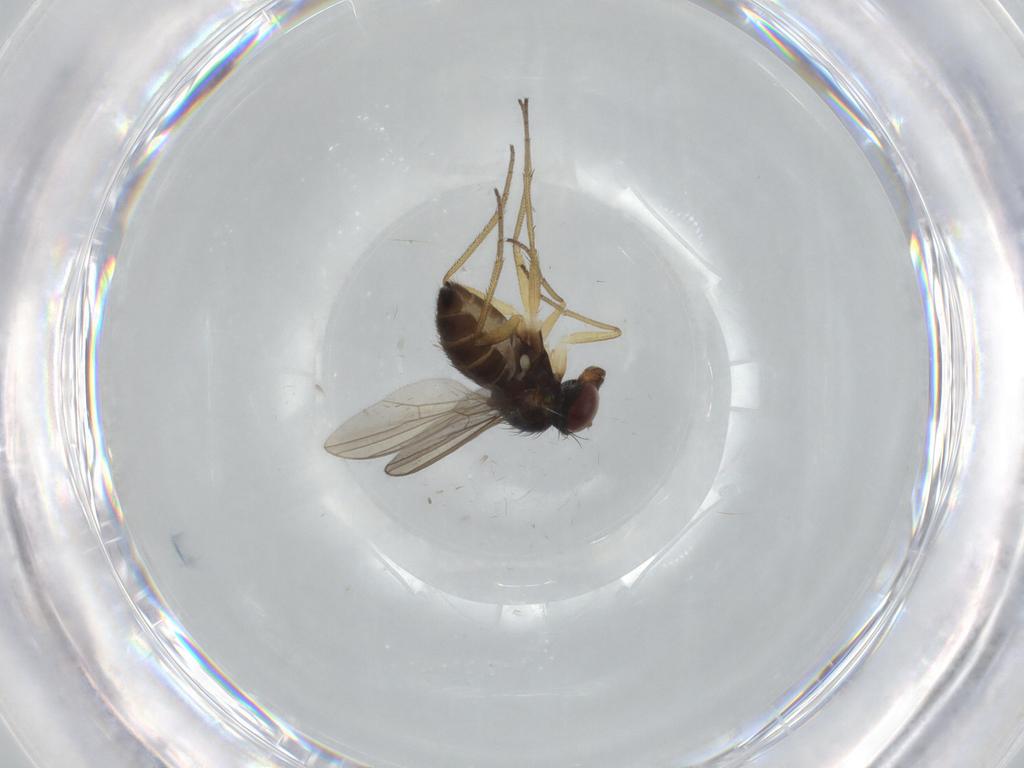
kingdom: Animalia
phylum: Arthropoda
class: Insecta
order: Diptera
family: Dolichopodidae
